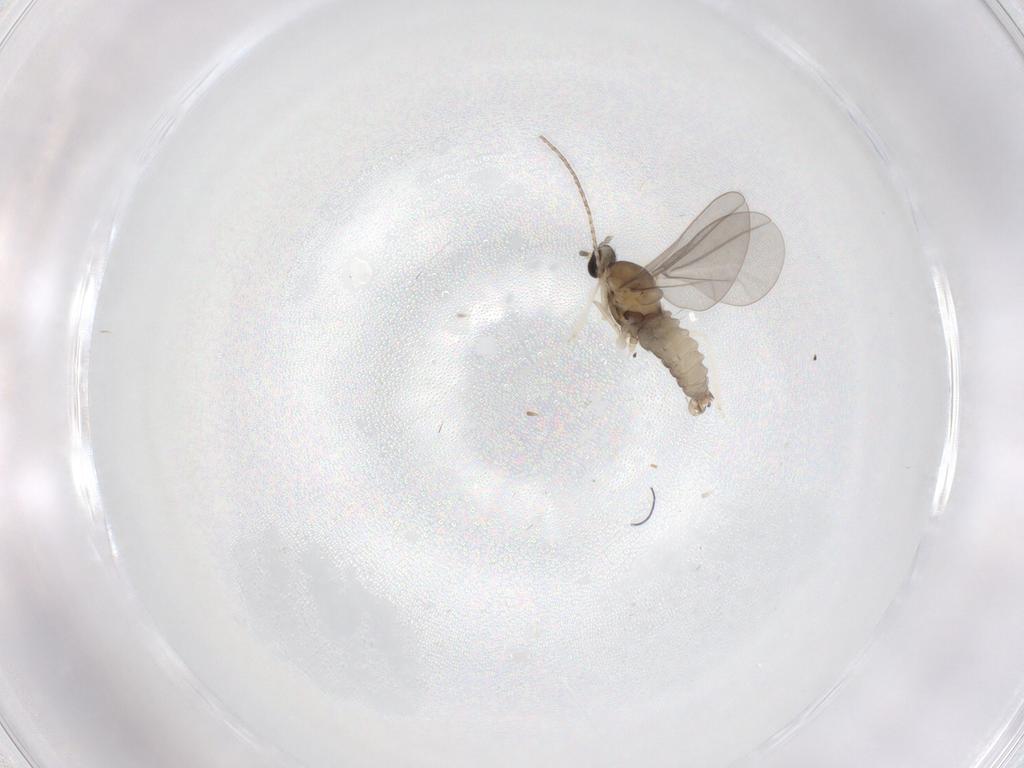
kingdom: Animalia
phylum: Arthropoda
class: Insecta
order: Diptera
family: Cecidomyiidae
